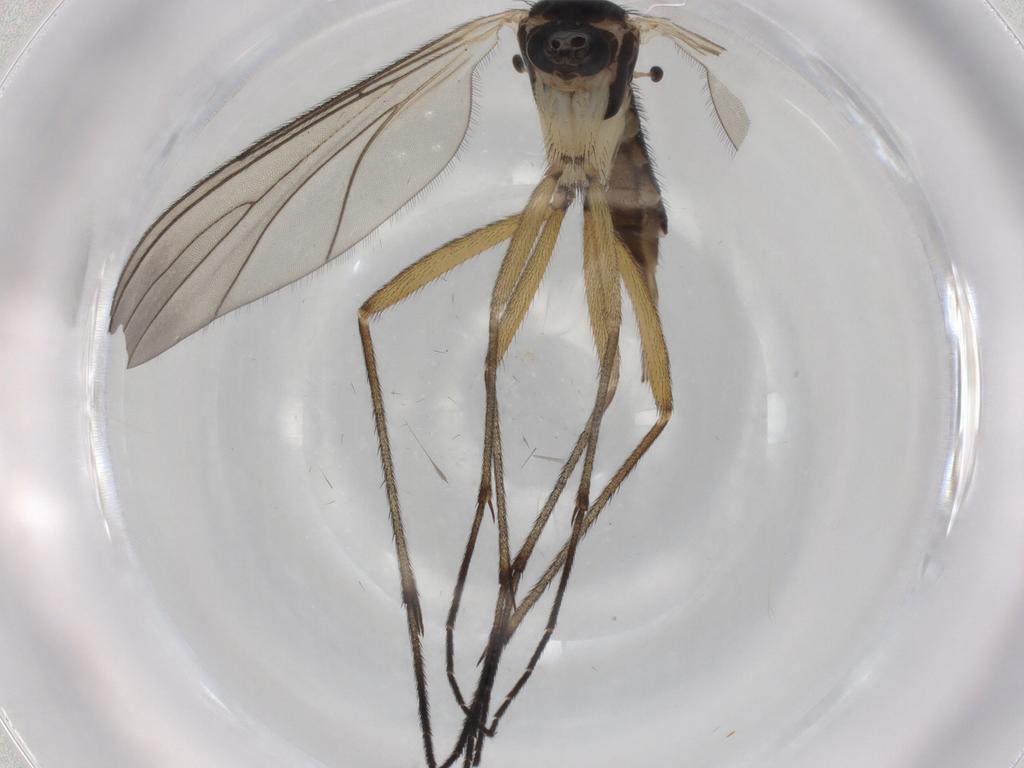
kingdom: Animalia
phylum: Arthropoda
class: Insecta
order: Diptera
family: Sciaridae
